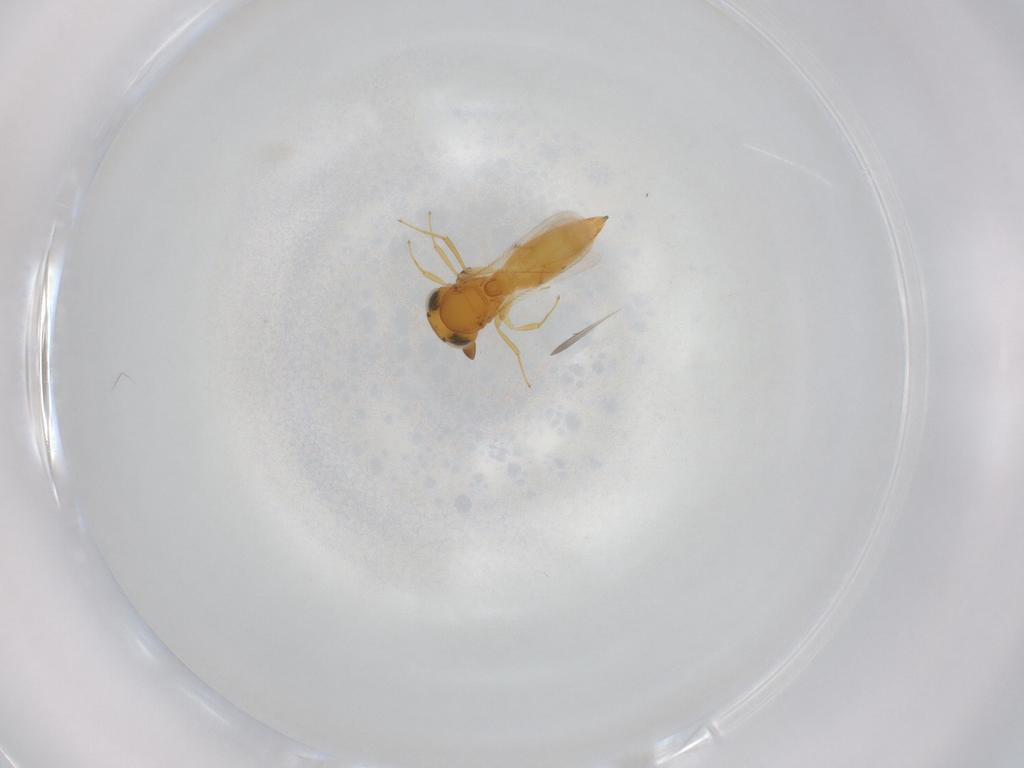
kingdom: Animalia
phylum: Arthropoda
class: Insecta
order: Hymenoptera
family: Scelionidae
